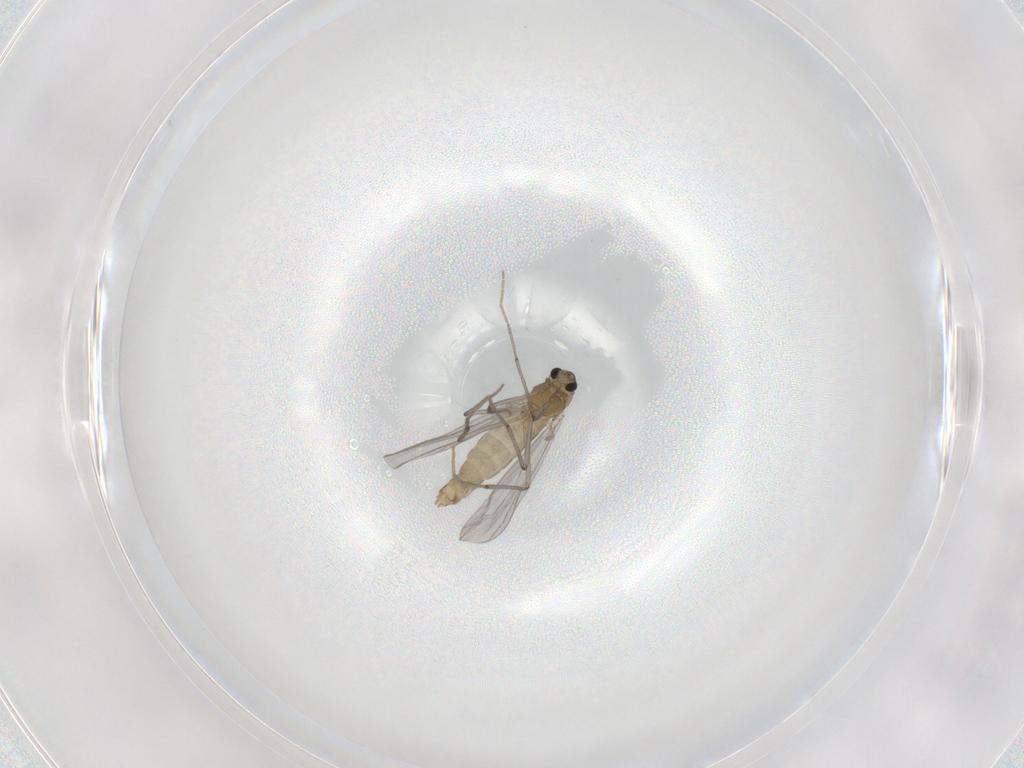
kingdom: Animalia
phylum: Arthropoda
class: Insecta
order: Diptera
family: Chironomidae
